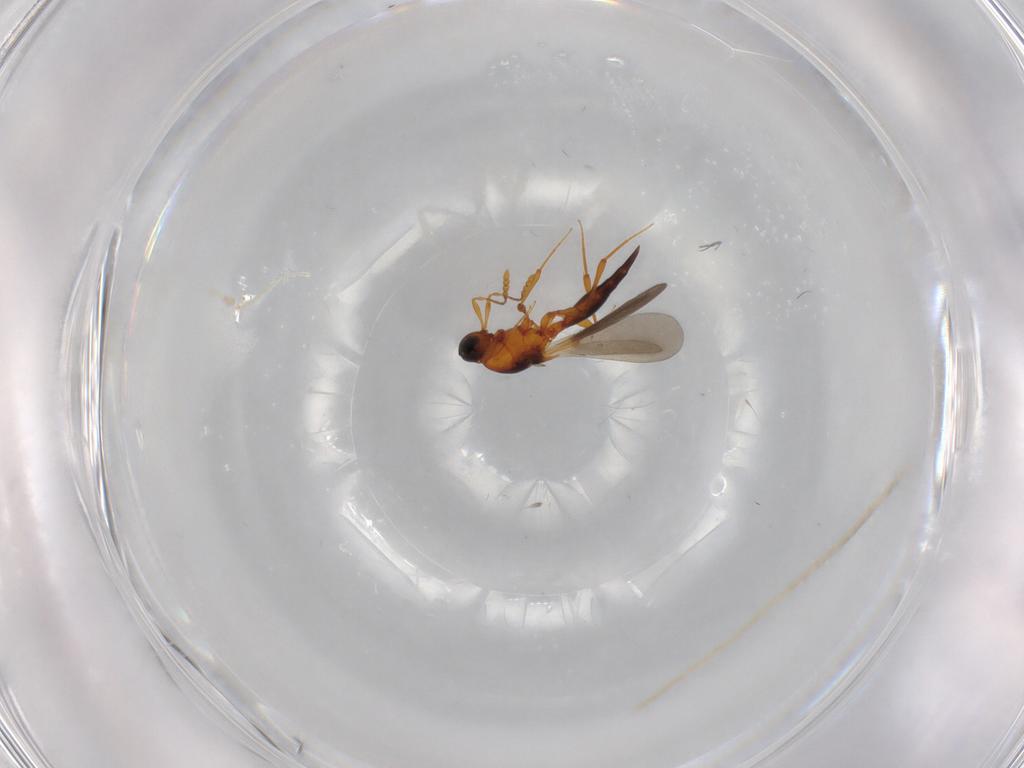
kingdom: Animalia
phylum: Arthropoda
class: Insecta
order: Hymenoptera
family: Platygastridae
